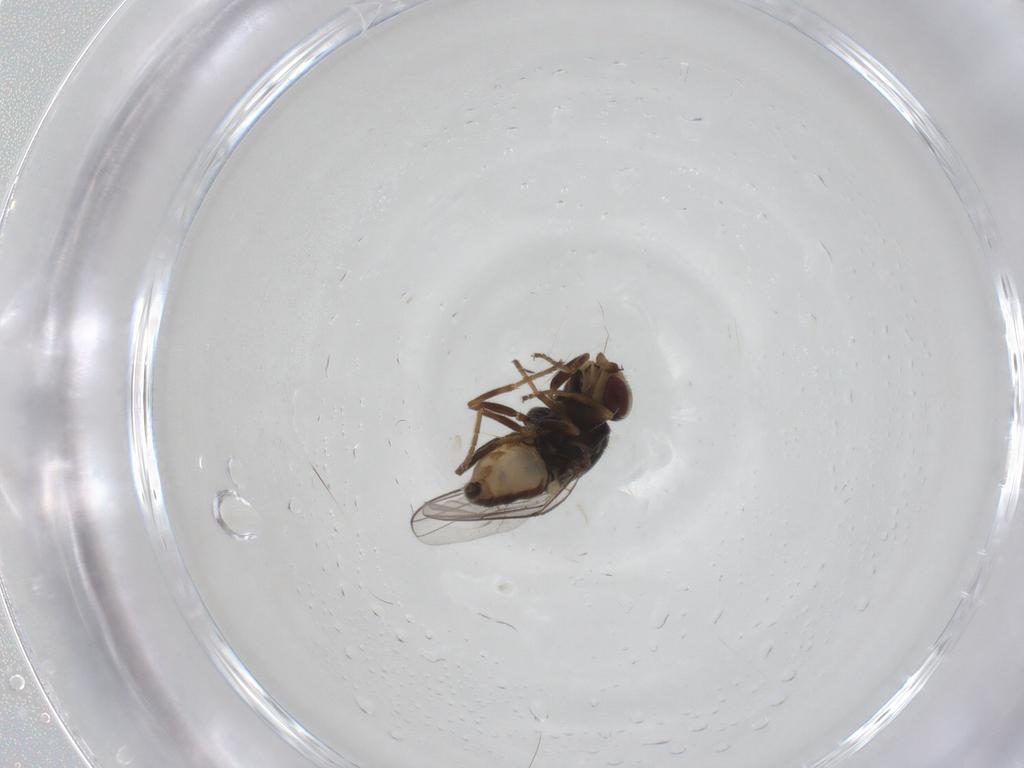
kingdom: Animalia
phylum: Arthropoda
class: Insecta
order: Diptera
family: Chloropidae
